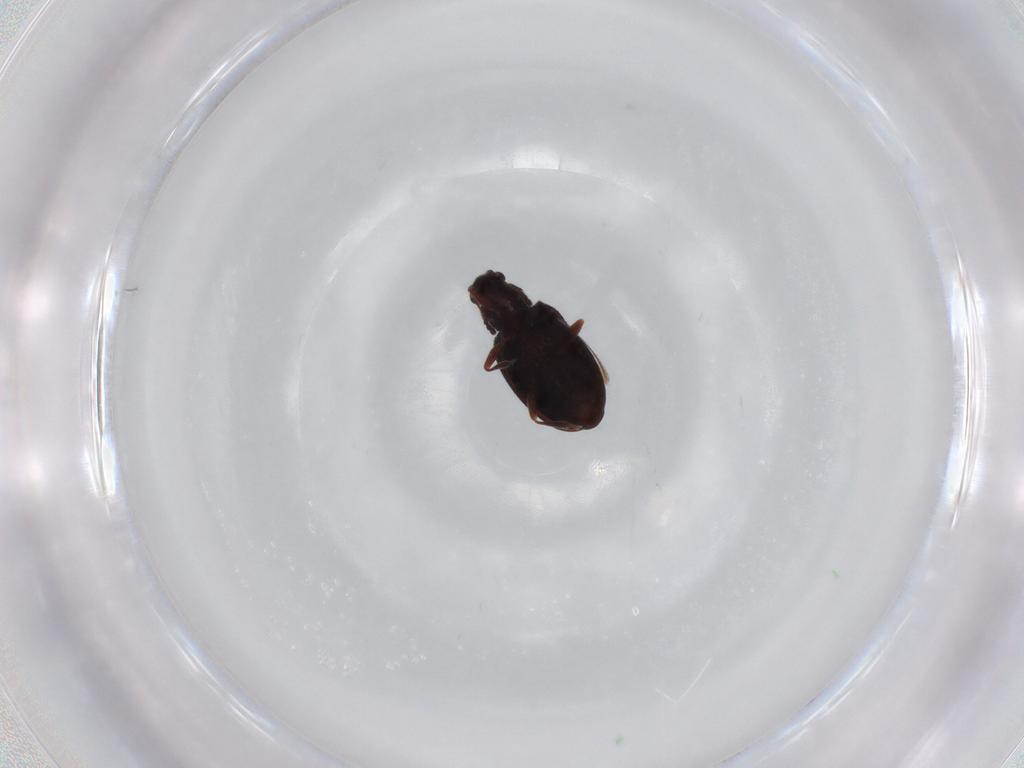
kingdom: Animalia
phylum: Arthropoda
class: Insecta
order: Coleoptera
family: Latridiidae
